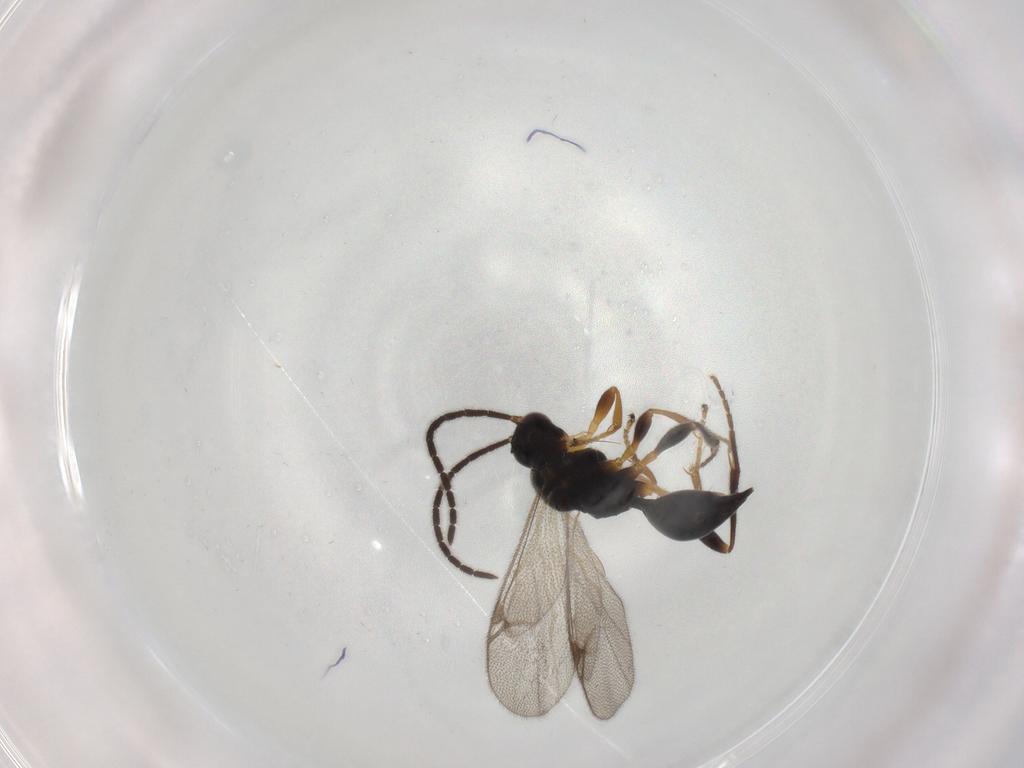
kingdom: Animalia
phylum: Arthropoda
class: Insecta
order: Hymenoptera
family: Proctotrupidae
